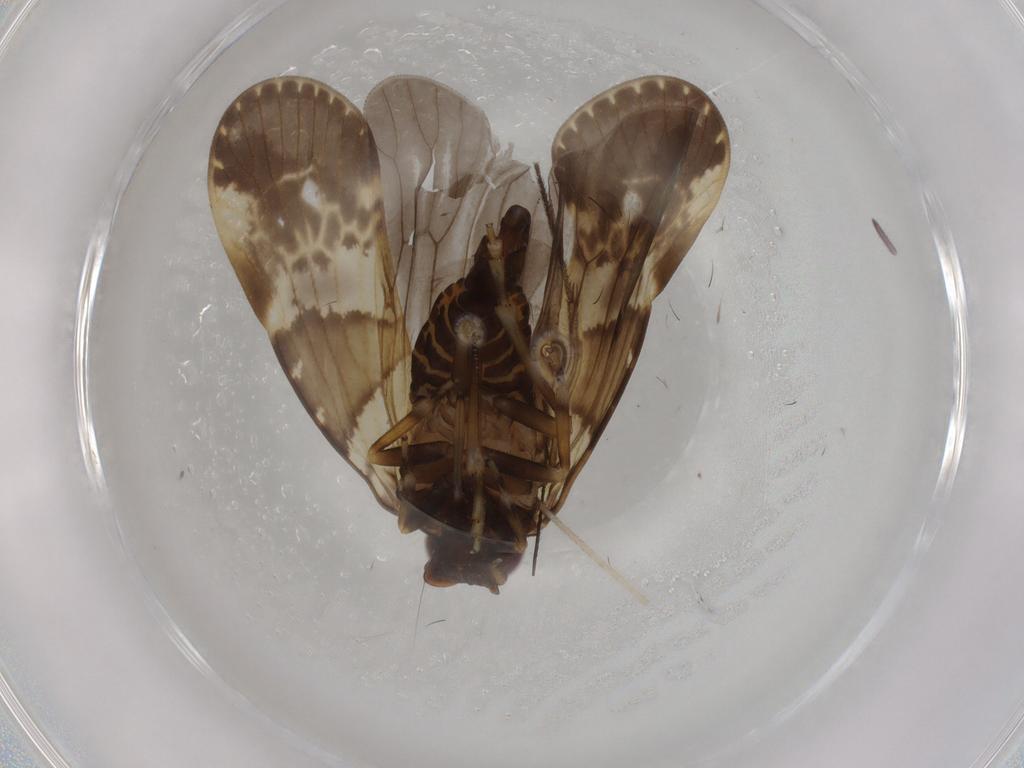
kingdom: Animalia
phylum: Arthropoda
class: Insecta
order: Hemiptera
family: Cixiidae
